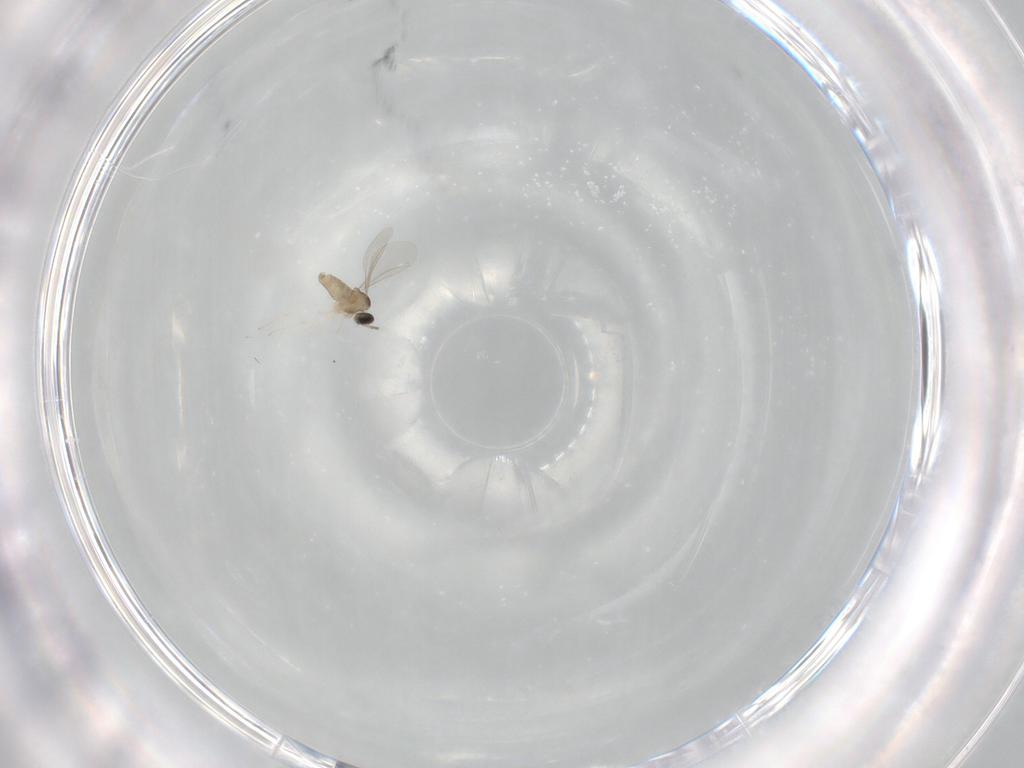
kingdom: Animalia
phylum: Arthropoda
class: Insecta
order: Diptera
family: Cecidomyiidae
